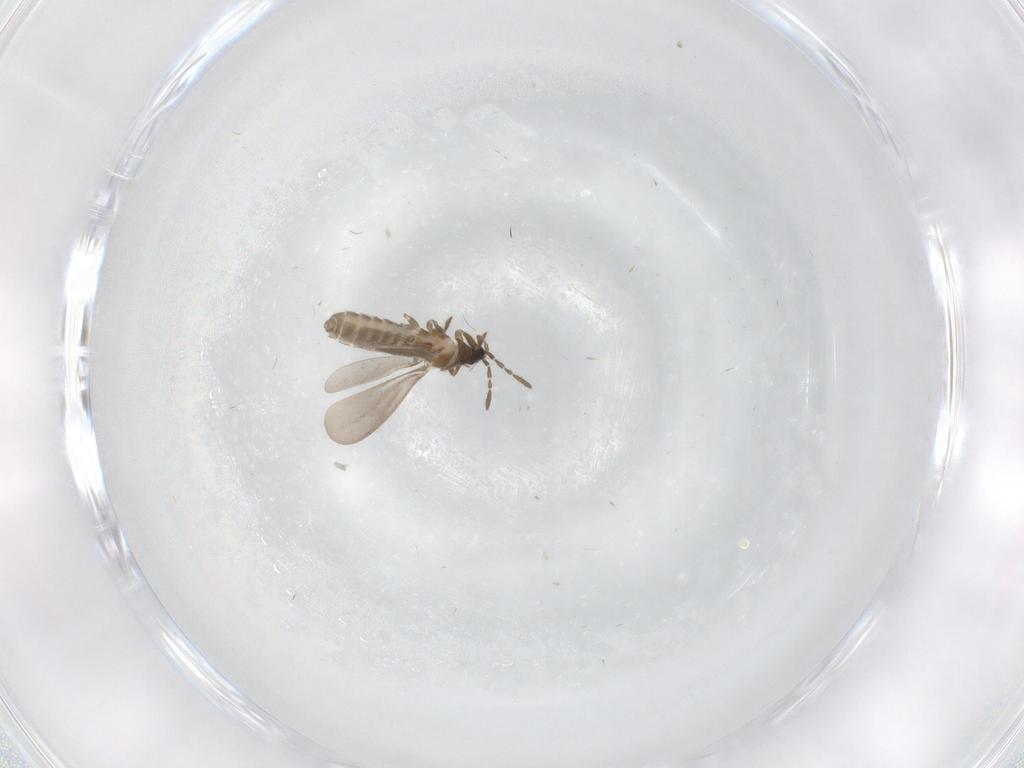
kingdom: Animalia
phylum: Arthropoda
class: Insecta
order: Hemiptera
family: Enicocephalidae
